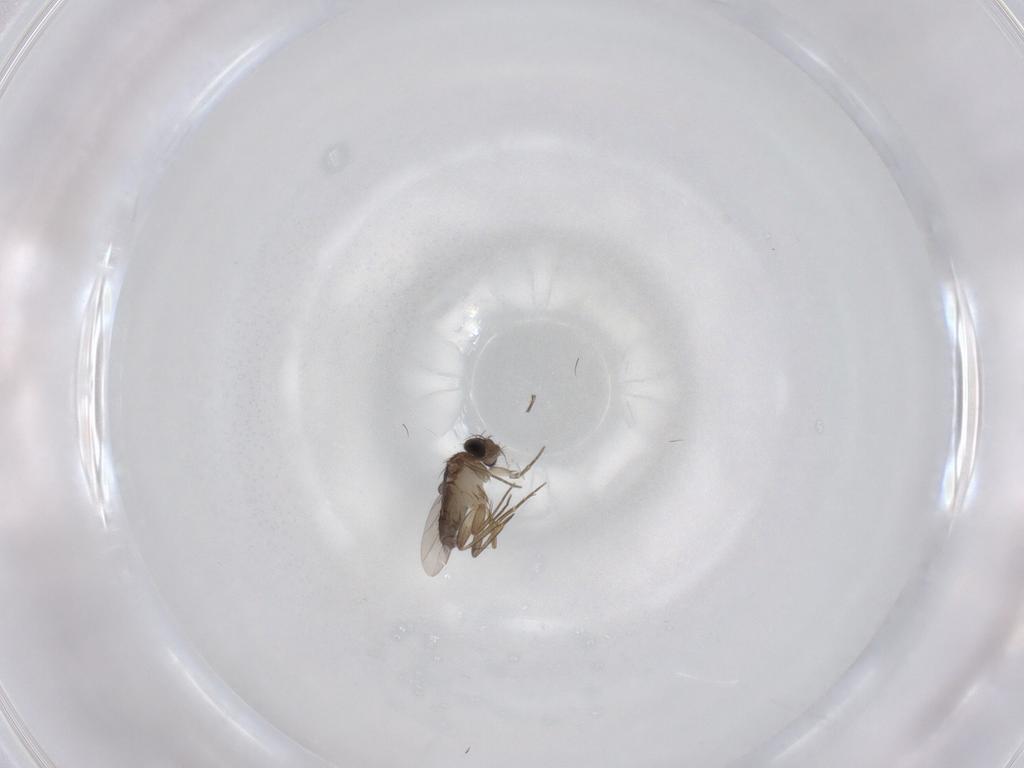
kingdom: Animalia
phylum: Arthropoda
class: Insecta
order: Diptera
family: Phoridae
